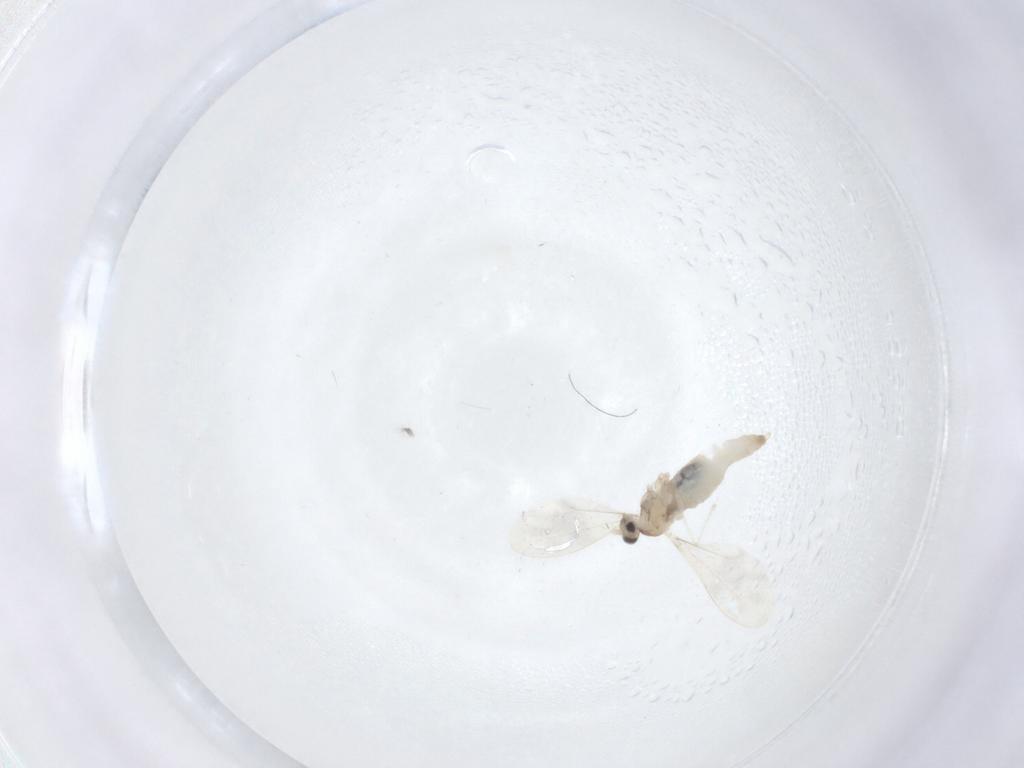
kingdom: Animalia
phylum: Arthropoda
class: Insecta
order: Diptera
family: Cecidomyiidae
